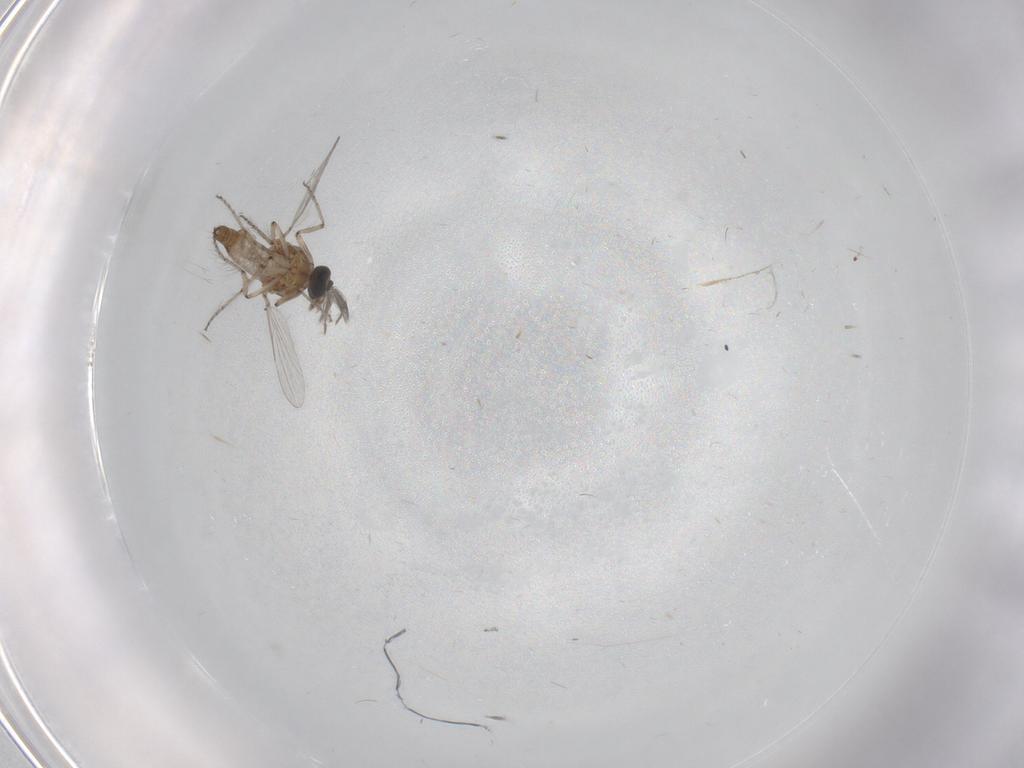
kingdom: Animalia
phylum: Arthropoda
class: Insecta
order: Diptera
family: Ceratopogonidae
